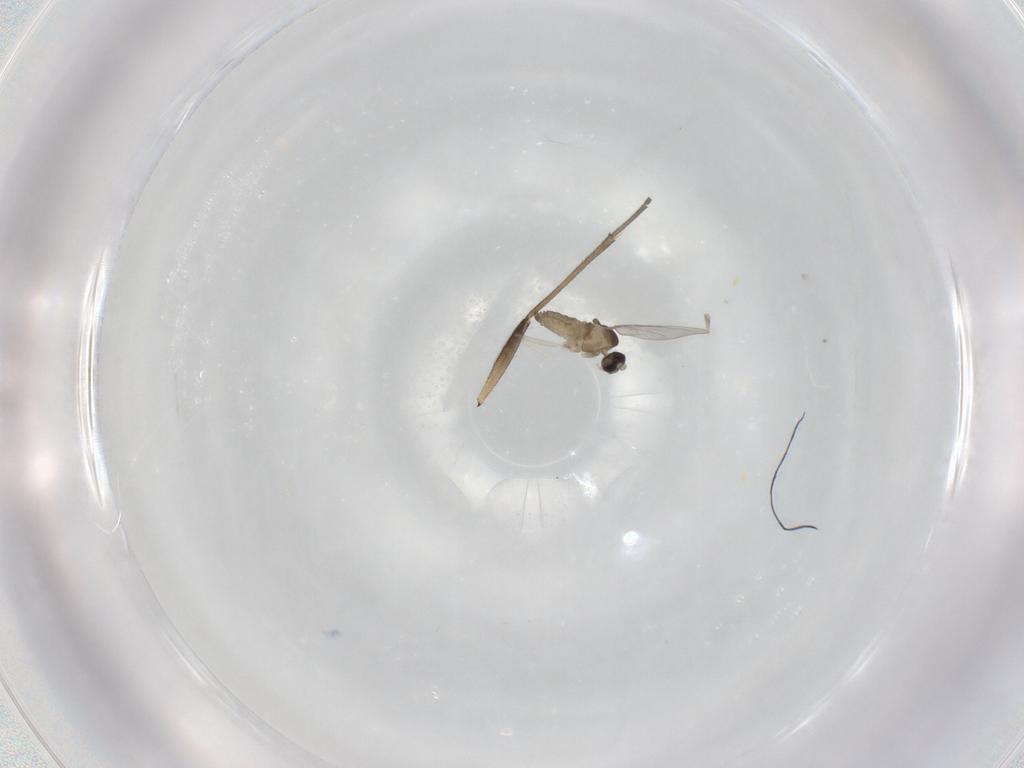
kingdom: Animalia
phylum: Arthropoda
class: Insecta
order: Diptera
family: Cecidomyiidae
